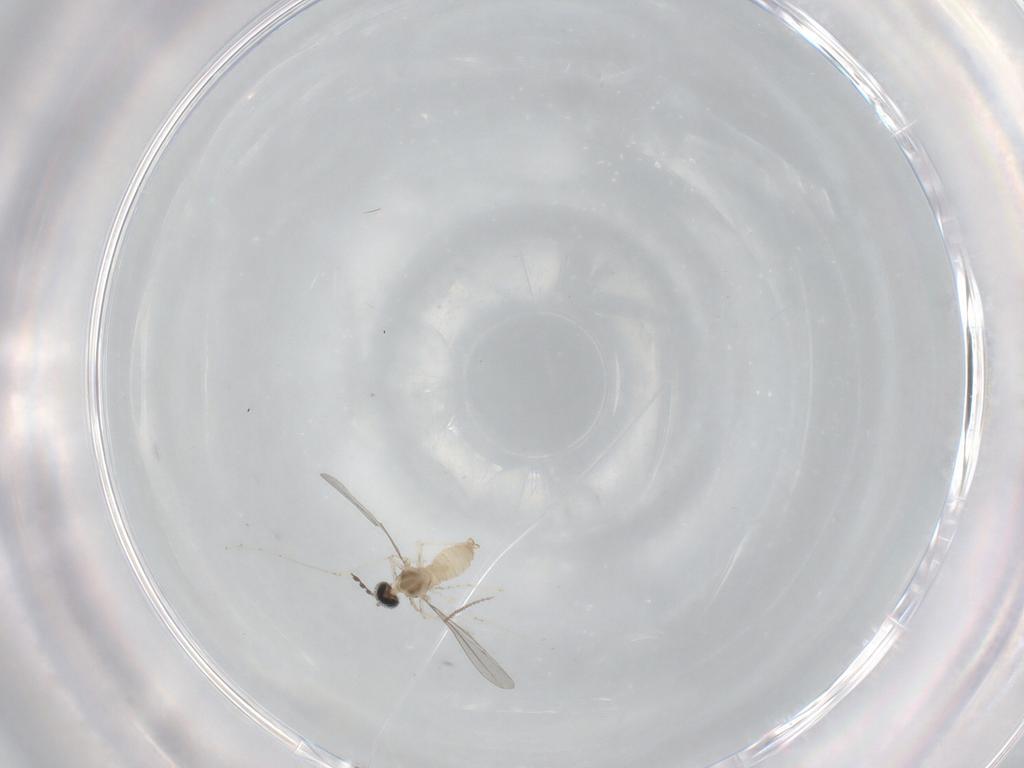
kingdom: Animalia
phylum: Arthropoda
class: Insecta
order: Diptera
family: Cecidomyiidae
